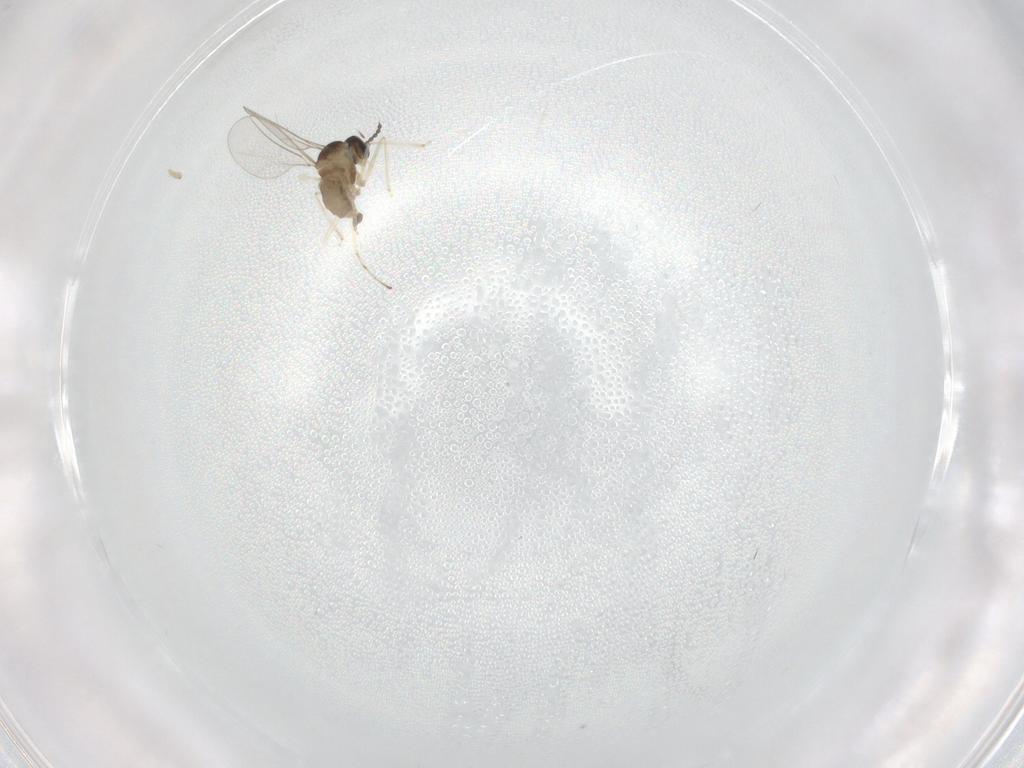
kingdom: Animalia
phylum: Arthropoda
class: Insecta
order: Diptera
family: Cecidomyiidae
